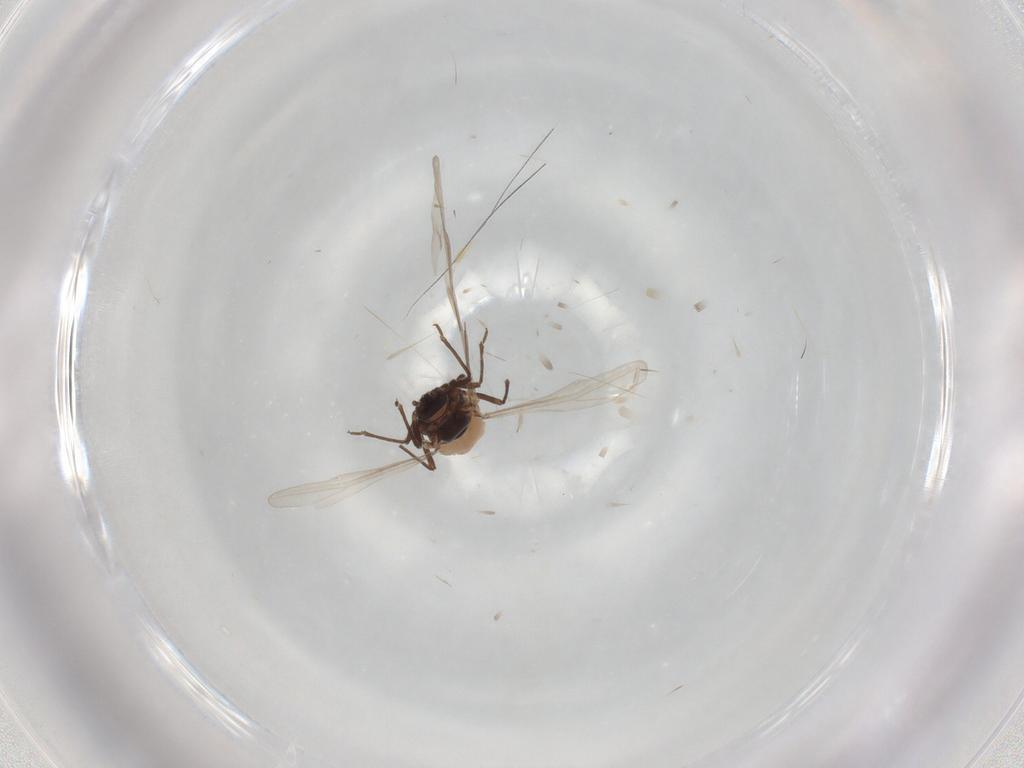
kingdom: Animalia
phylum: Arthropoda
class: Insecta
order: Hemiptera
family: Aphididae
